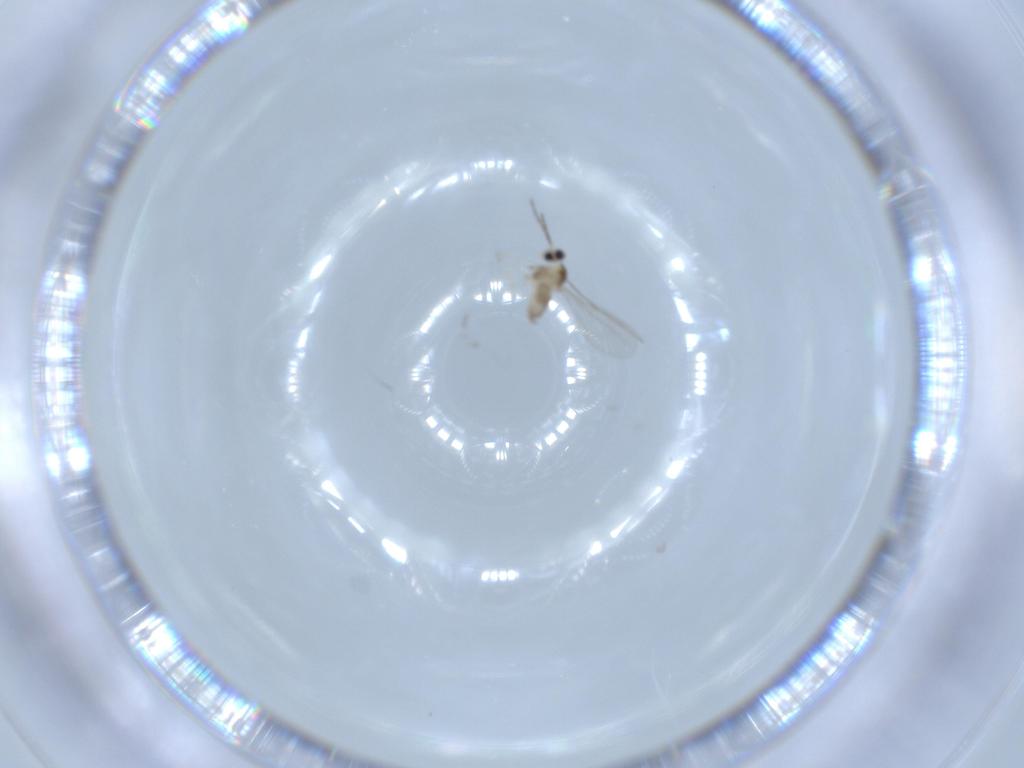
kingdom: Animalia
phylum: Arthropoda
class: Insecta
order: Diptera
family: Cecidomyiidae
